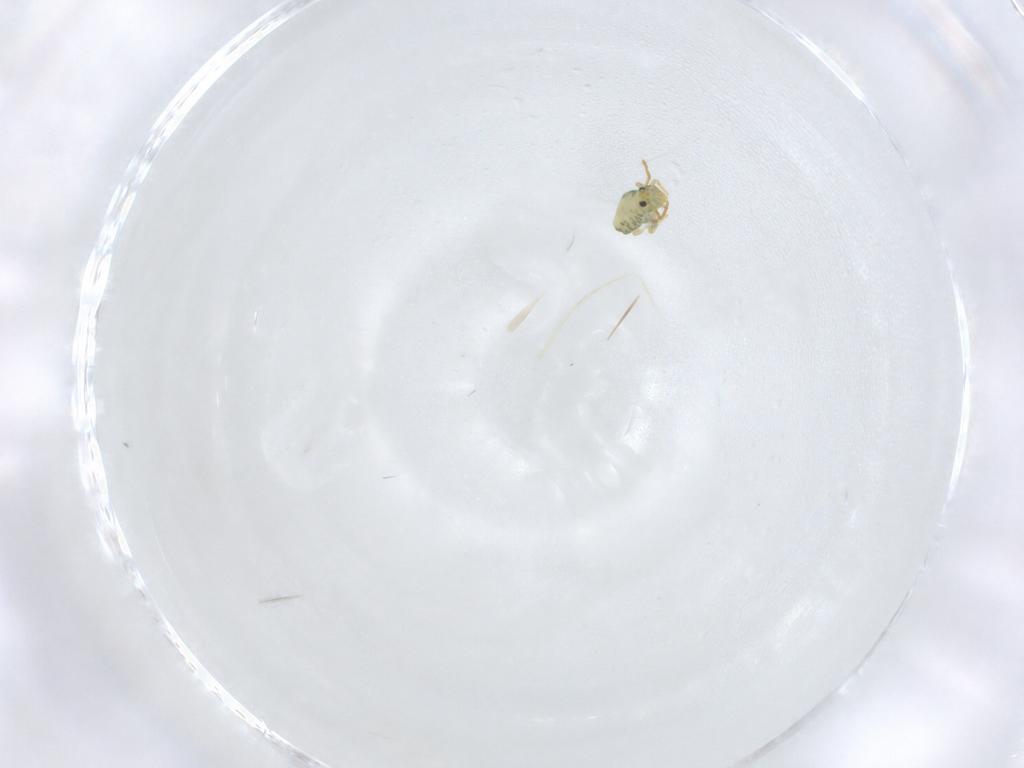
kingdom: Animalia
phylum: Arthropoda
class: Collembola
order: Symphypleona
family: Katiannidae
